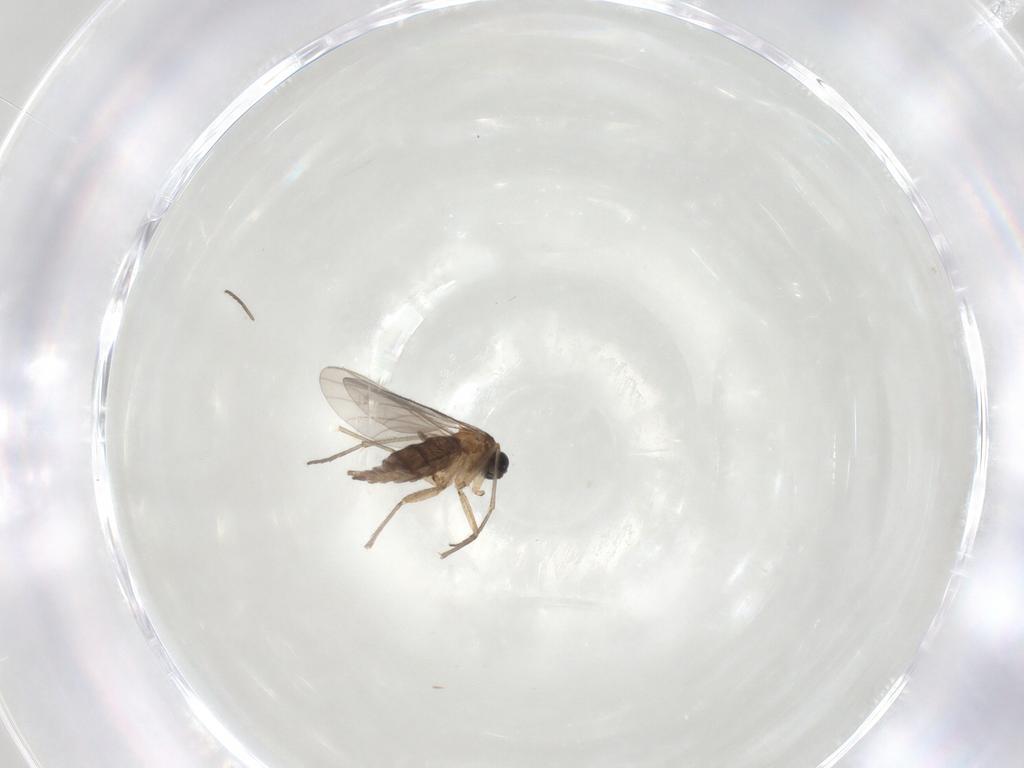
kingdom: Animalia
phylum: Arthropoda
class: Insecta
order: Diptera
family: Sciaridae
